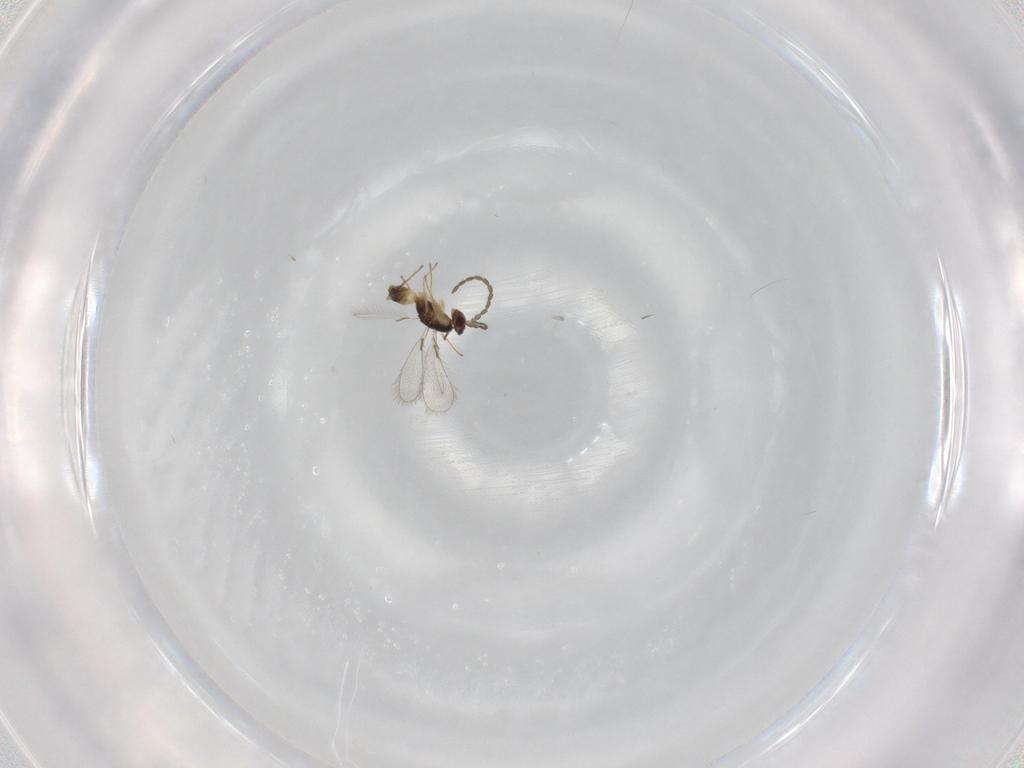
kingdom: Animalia
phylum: Arthropoda
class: Insecta
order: Hymenoptera
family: Mymaridae
